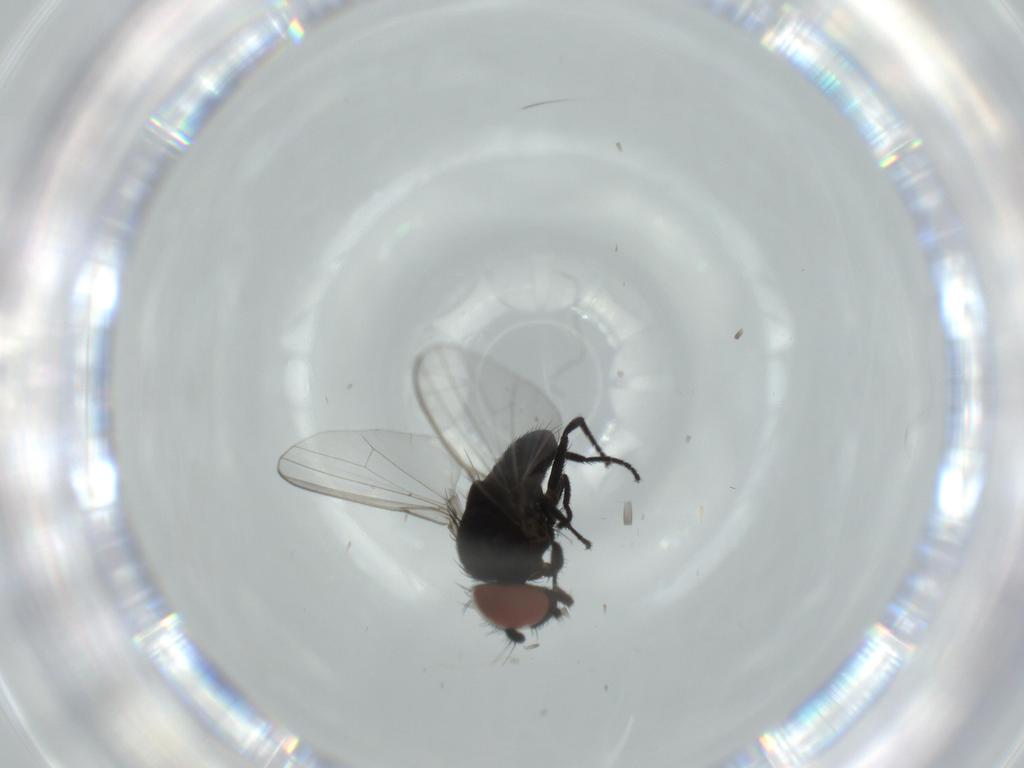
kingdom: Animalia
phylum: Arthropoda
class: Insecta
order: Diptera
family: Milichiidae
